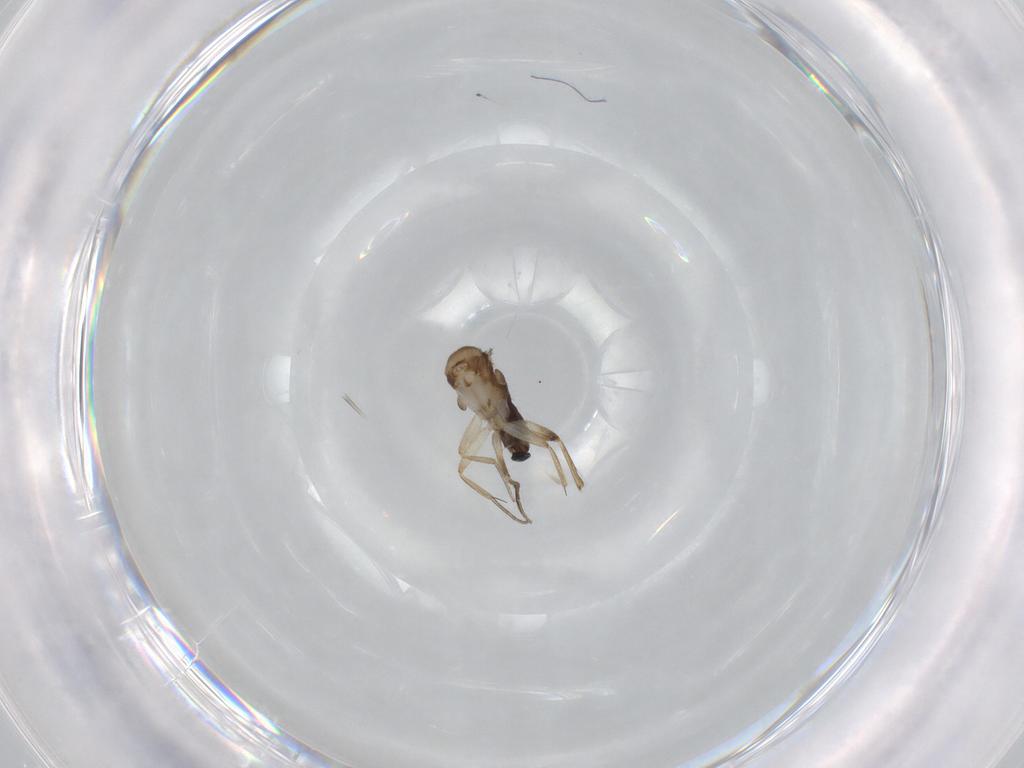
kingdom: Animalia
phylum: Arthropoda
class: Insecta
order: Diptera
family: Phoridae
